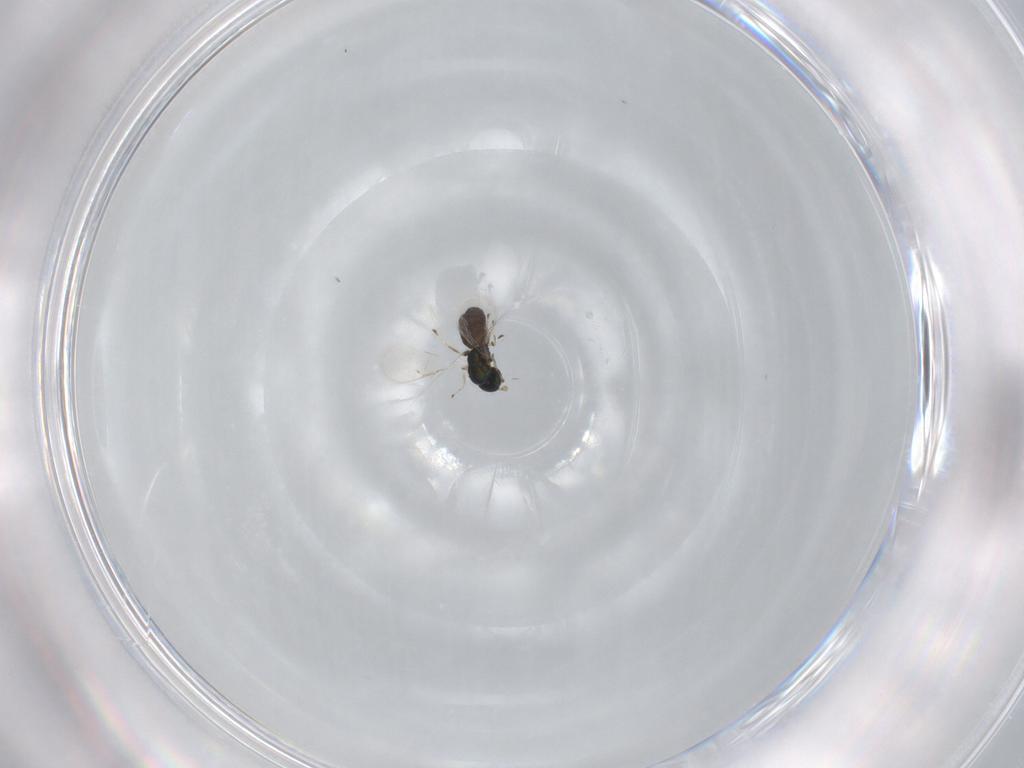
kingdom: Animalia
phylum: Arthropoda
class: Insecta
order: Hymenoptera
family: Eulophidae
